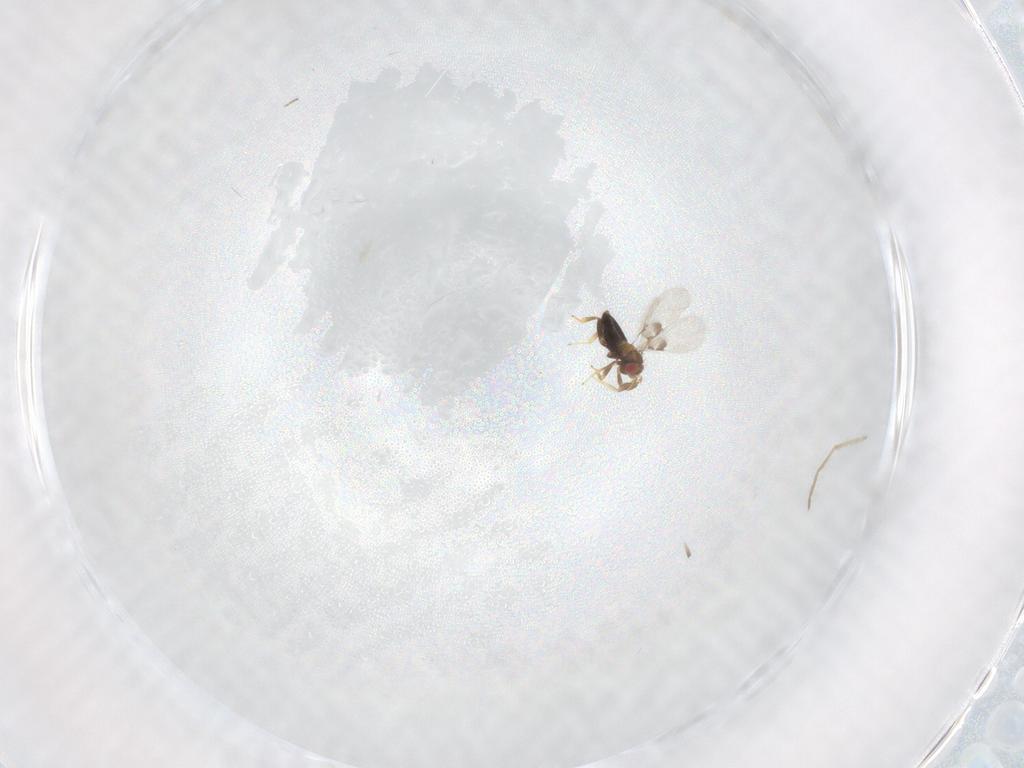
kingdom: Animalia
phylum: Arthropoda
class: Insecta
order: Hymenoptera
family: Trichogrammatidae
